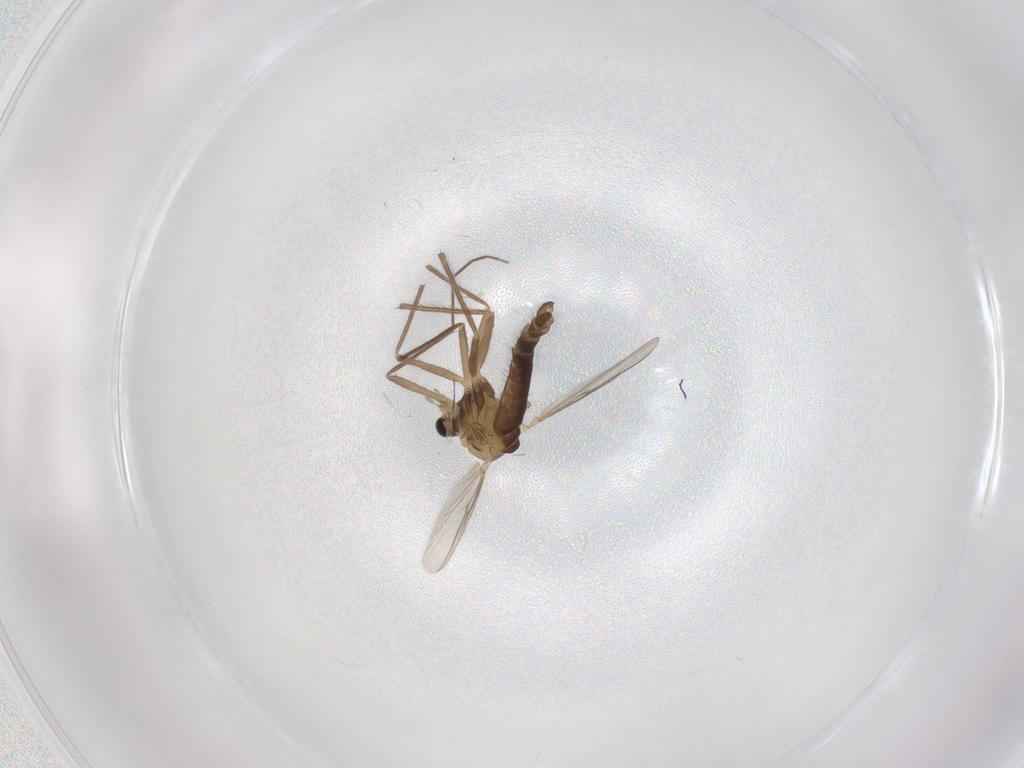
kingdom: Animalia
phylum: Arthropoda
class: Insecta
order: Diptera
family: Chironomidae
